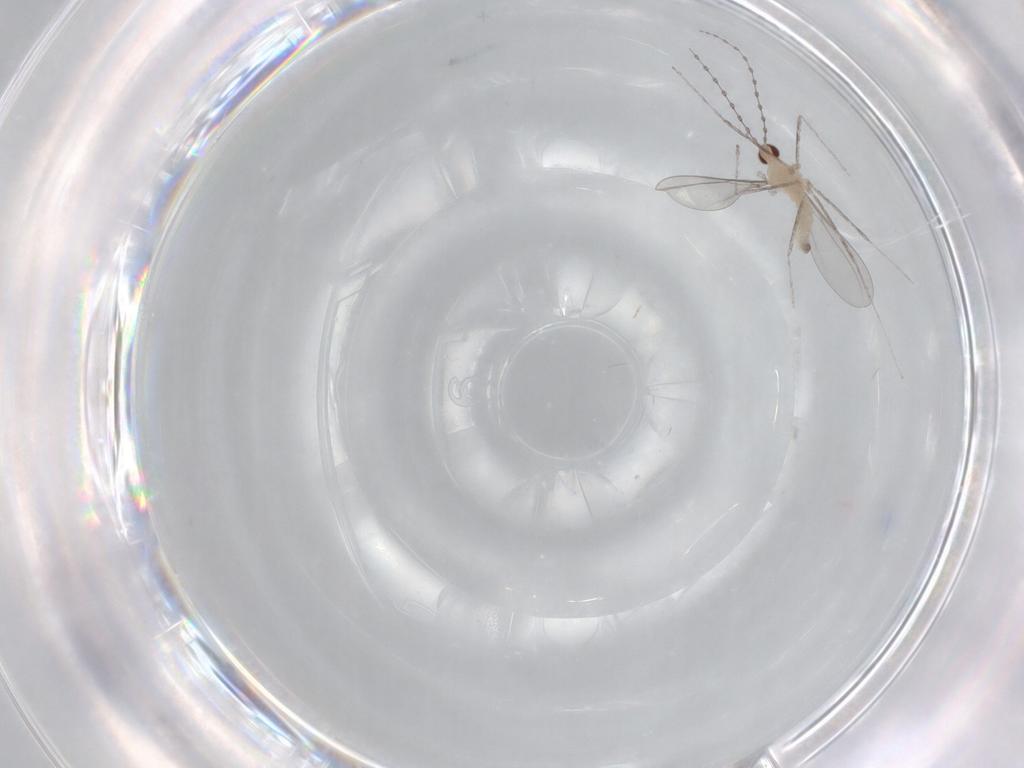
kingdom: Animalia
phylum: Arthropoda
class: Insecta
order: Diptera
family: Cecidomyiidae
